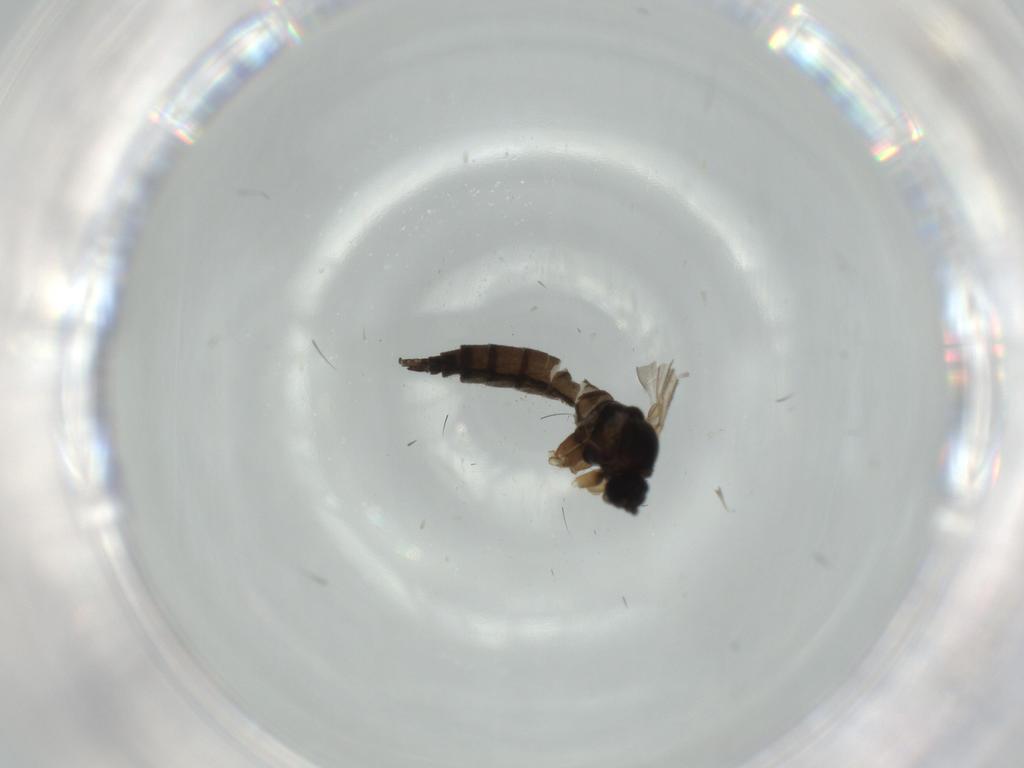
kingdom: Animalia
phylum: Arthropoda
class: Insecta
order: Diptera
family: Sciaridae
